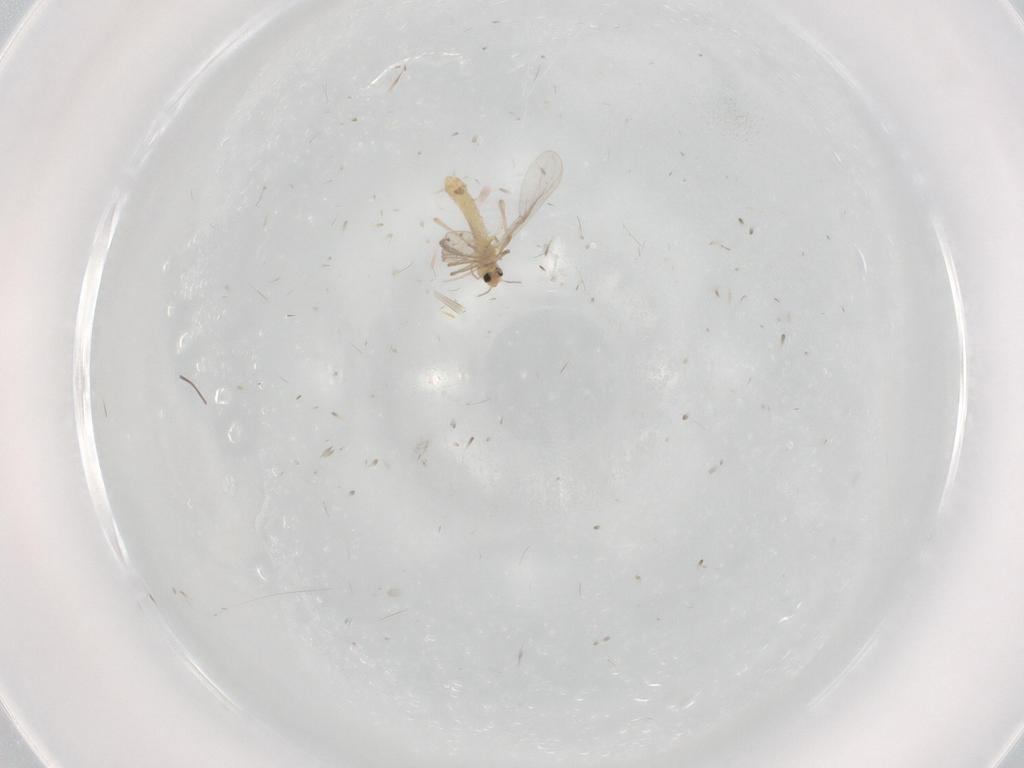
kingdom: Animalia
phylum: Arthropoda
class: Insecta
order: Diptera
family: Chironomidae
